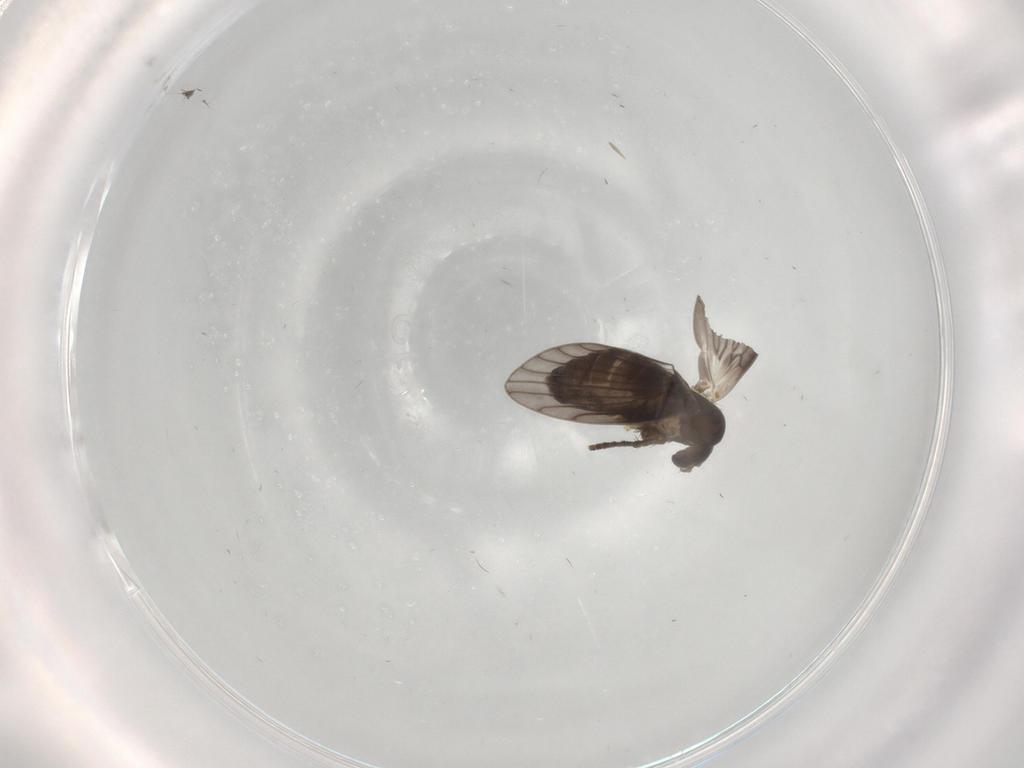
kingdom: Animalia
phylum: Arthropoda
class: Insecta
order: Diptera
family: Sciaridae
